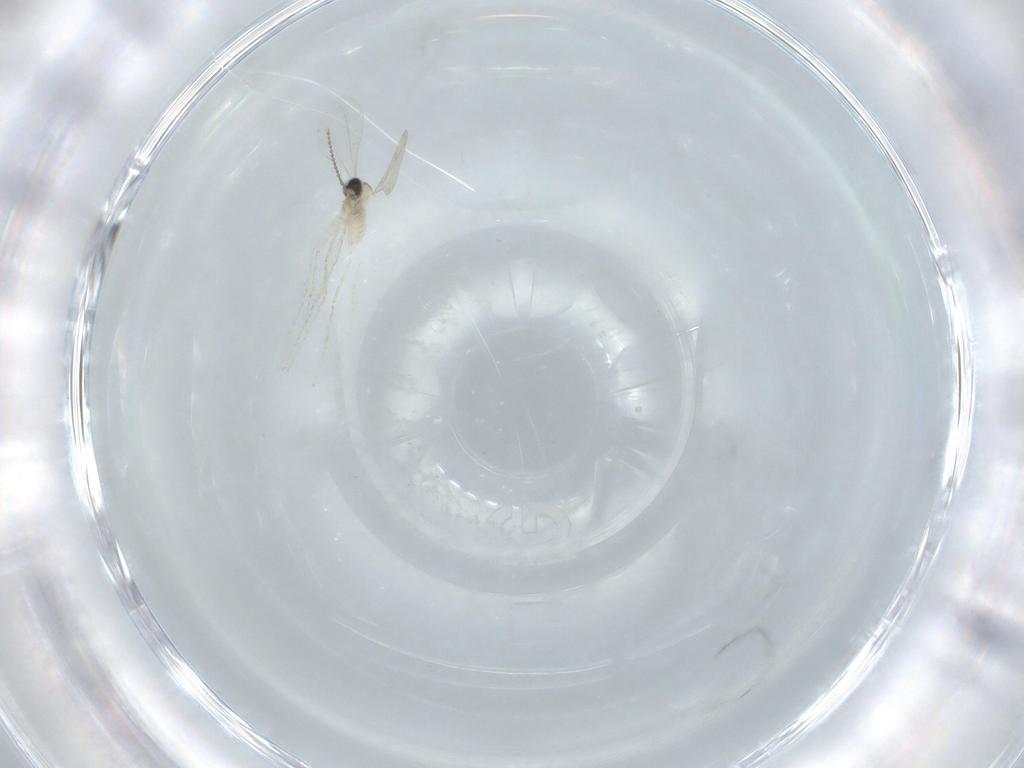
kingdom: Animalia
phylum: Arthropoda
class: Insecta
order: Diptera
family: Cecidomyiidae
